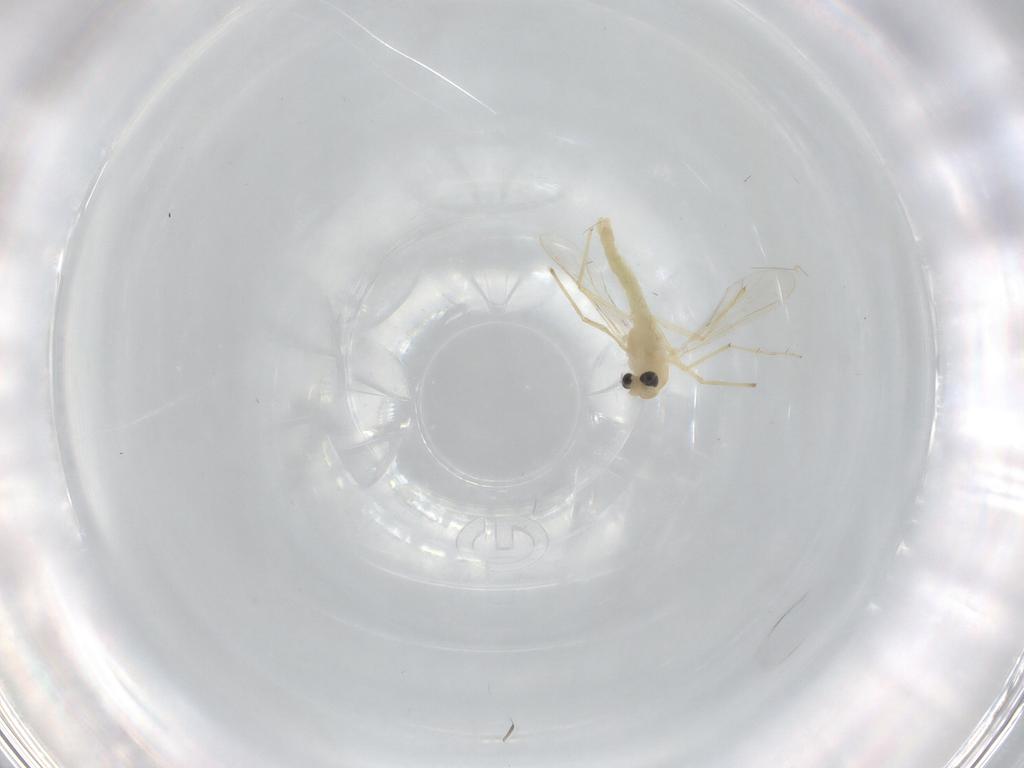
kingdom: Animalia
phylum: Arthropoda
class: Insecta
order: Diptera
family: Chironomidae
